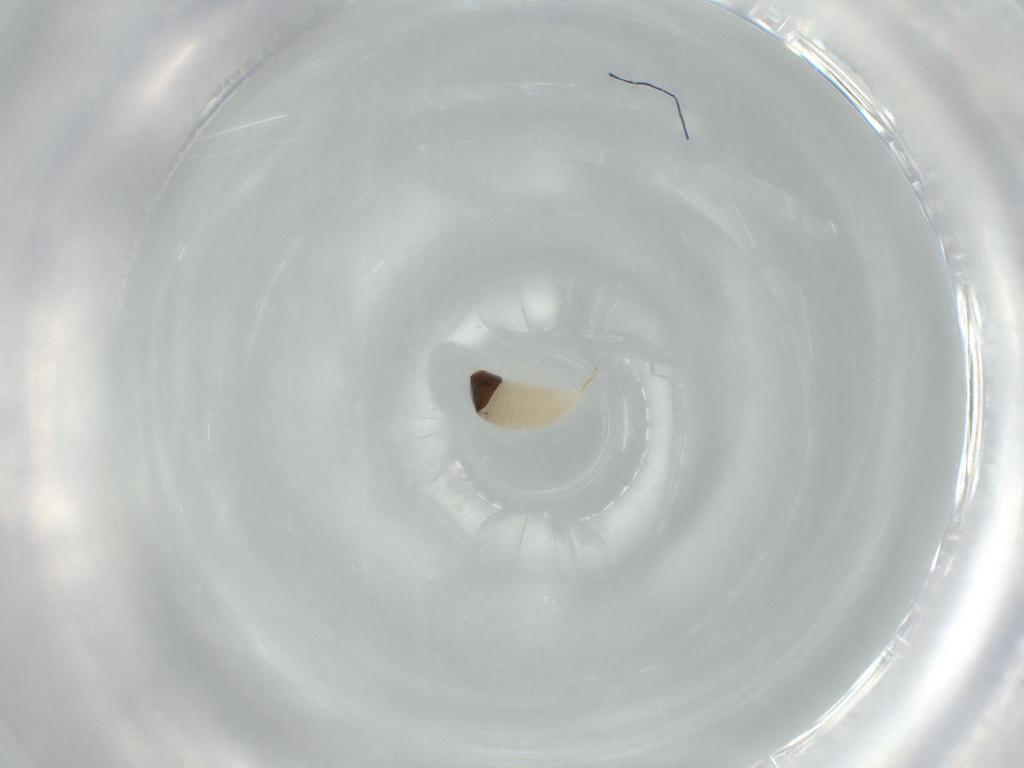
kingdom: Animalia
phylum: Arthropoda
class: Insecta
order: Hymenoptera
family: Ichneumonidae
